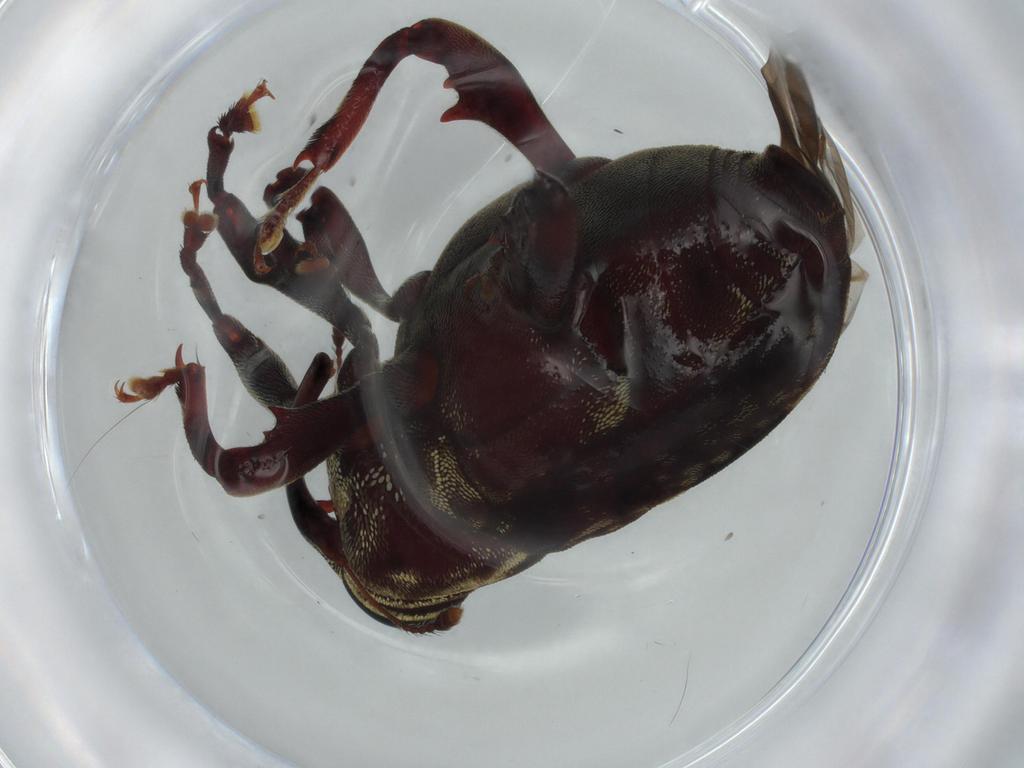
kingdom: Animalia
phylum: Arthropoda
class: Insecta
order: Coleoptera
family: Curculionidae
